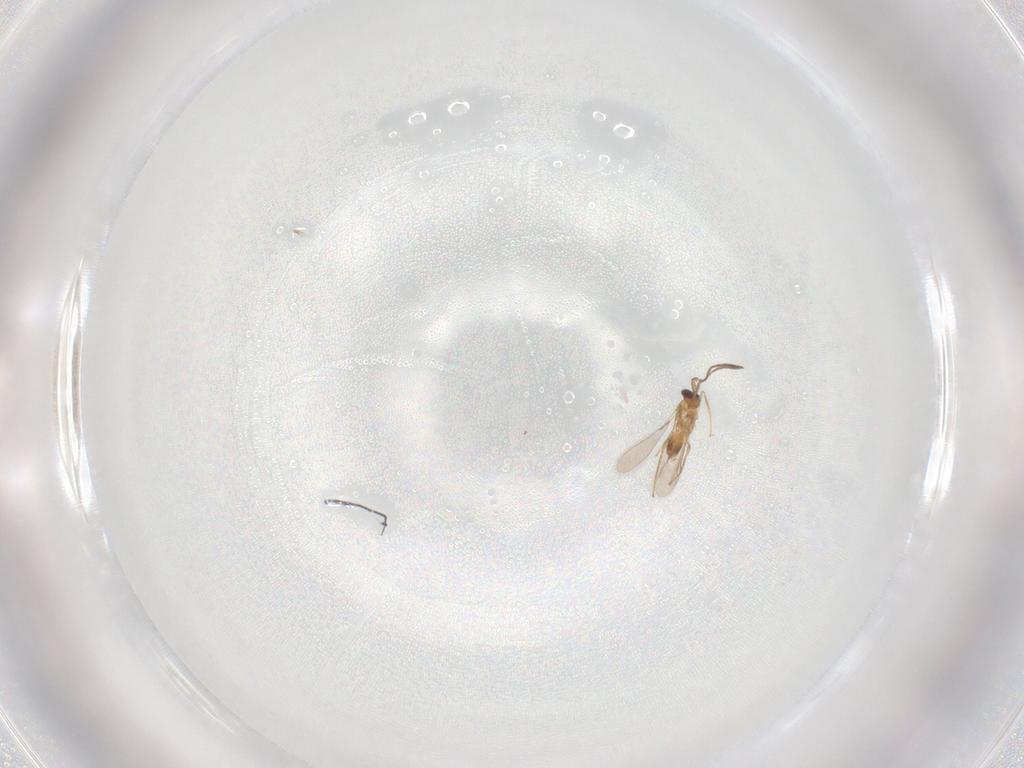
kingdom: Animalia
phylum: Arthropoda
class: Insecta
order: Hymenoptera
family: Mymaridae
